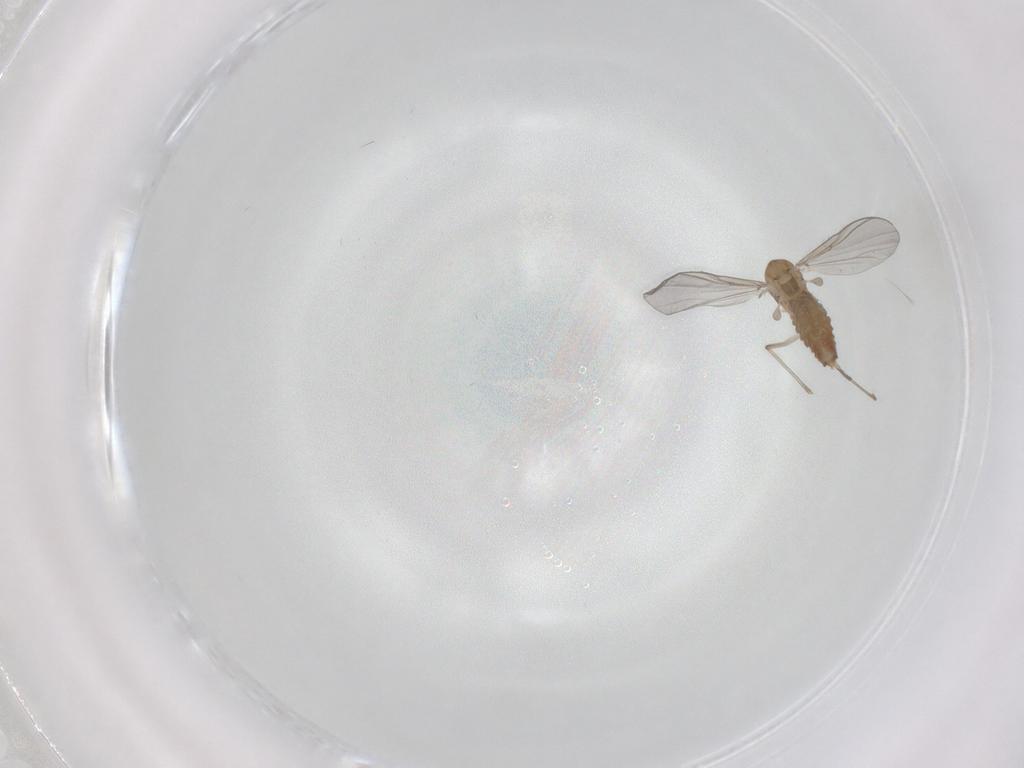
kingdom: Animalia
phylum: Arthropoda
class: Insecta
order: Diptera
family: Chironomidae
